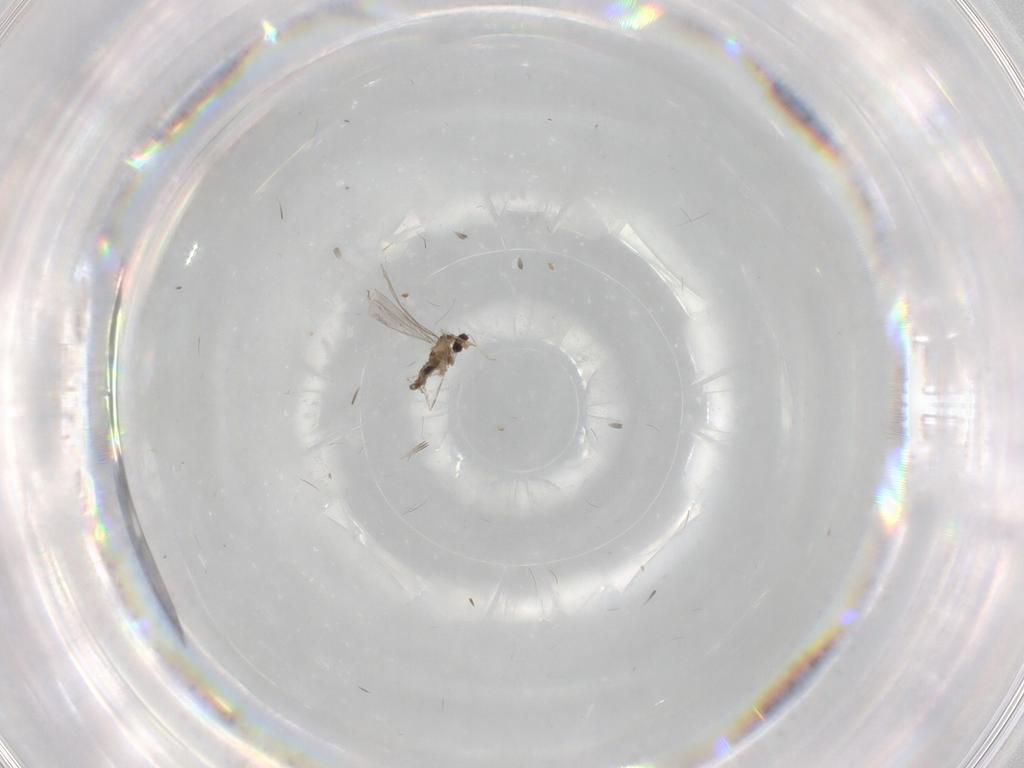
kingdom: Animalia
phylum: Arthropoda
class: Insecta
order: Diptera
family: Cecidomyiidae
